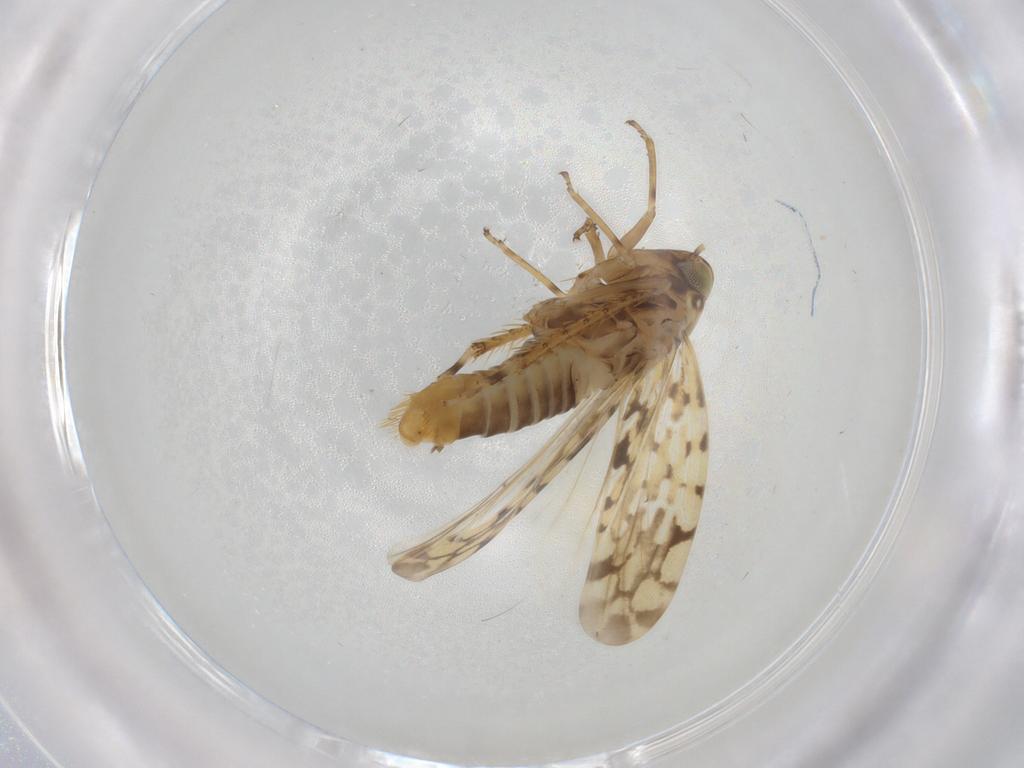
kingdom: Animalia
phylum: Arthropoda
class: Insecta
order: Hemiptera
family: Cicadellidae
